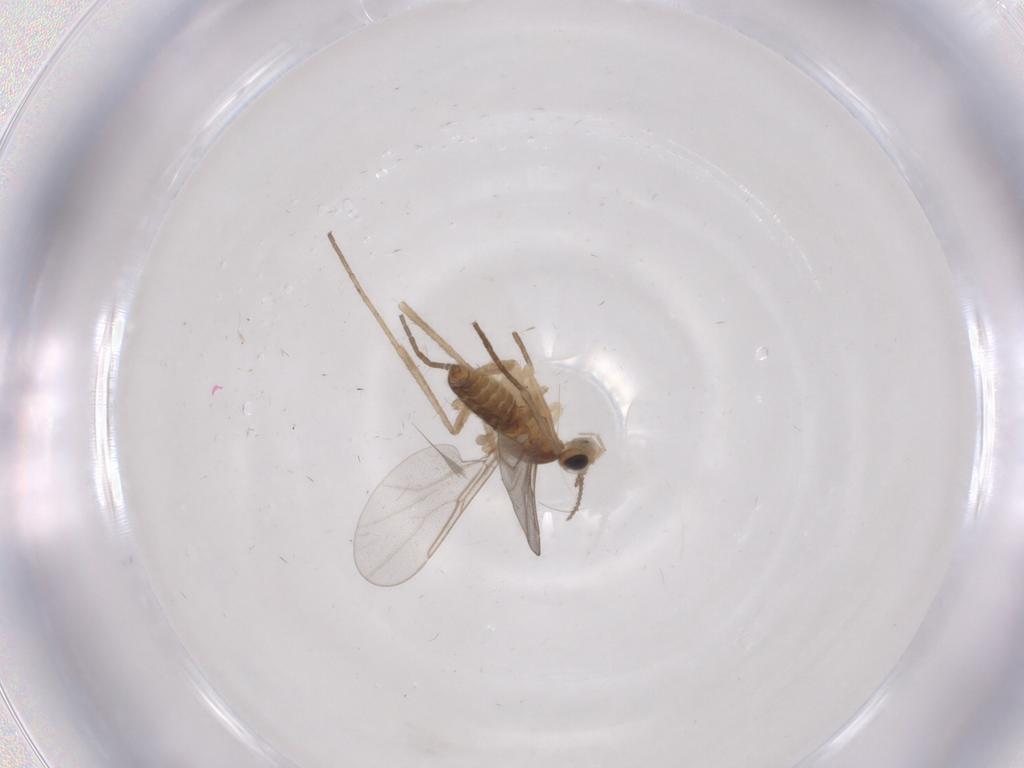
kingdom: Animalia
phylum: Arthropoda
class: Insecta
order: Diptera
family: Cecidomyiidae
